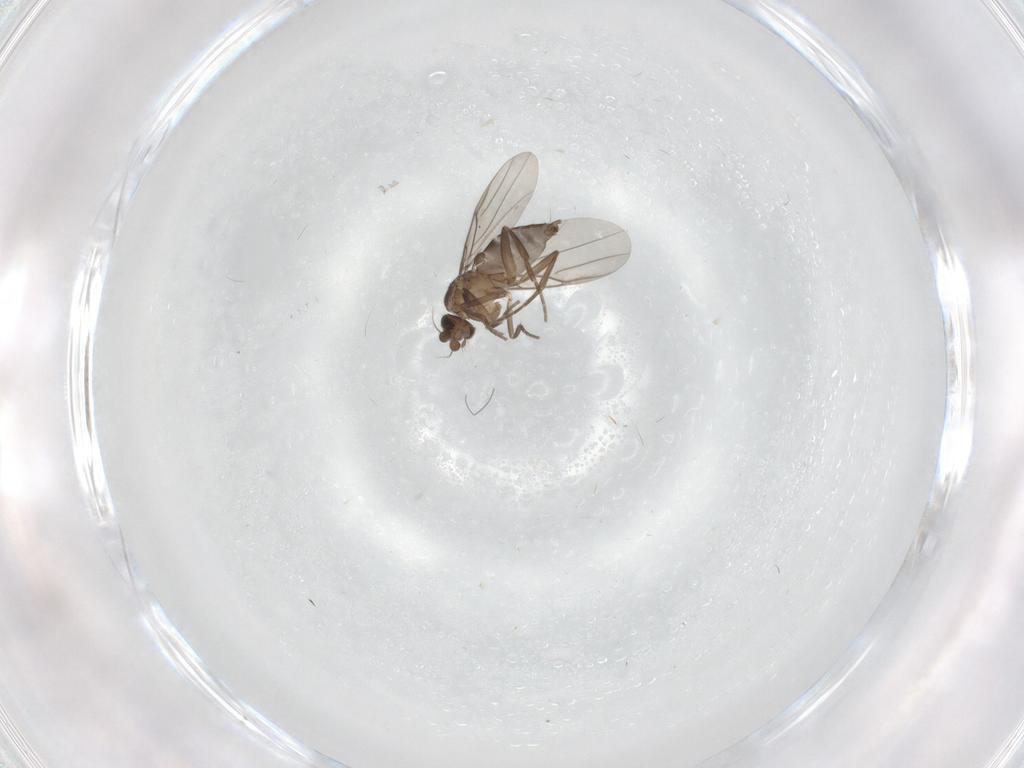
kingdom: Animalia
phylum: Arthropoda
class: Insecta
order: Diptera
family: Phoridae
